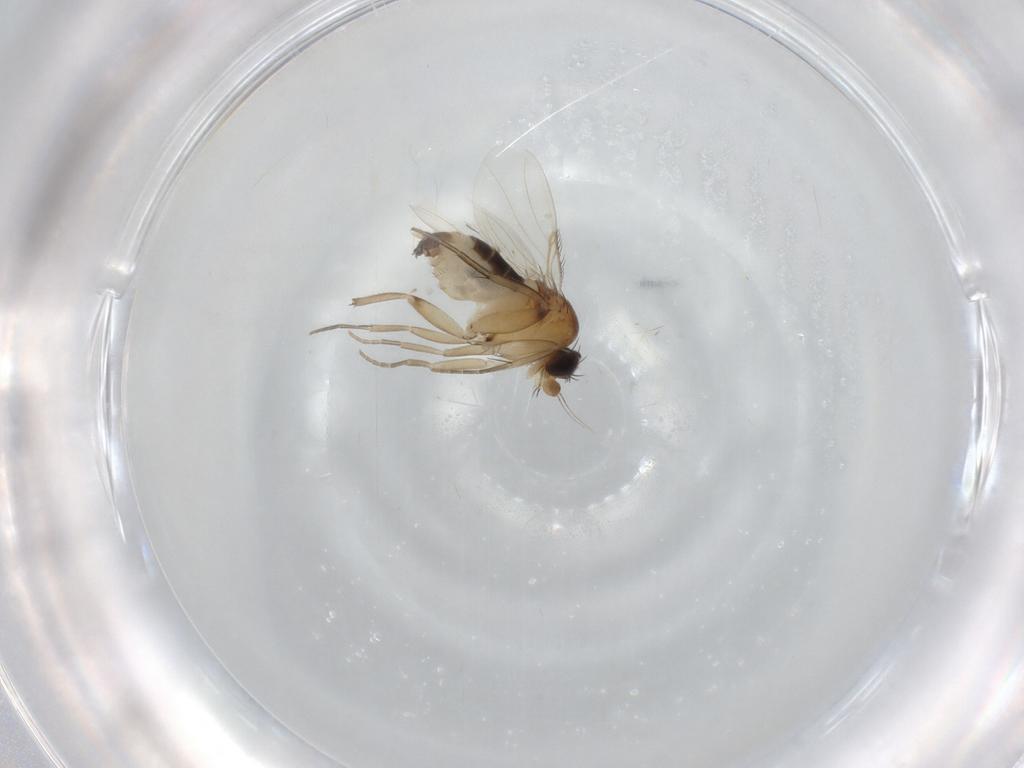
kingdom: Animalia
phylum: Arthropoda
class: Insecta
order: Diptera
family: Phoridae
